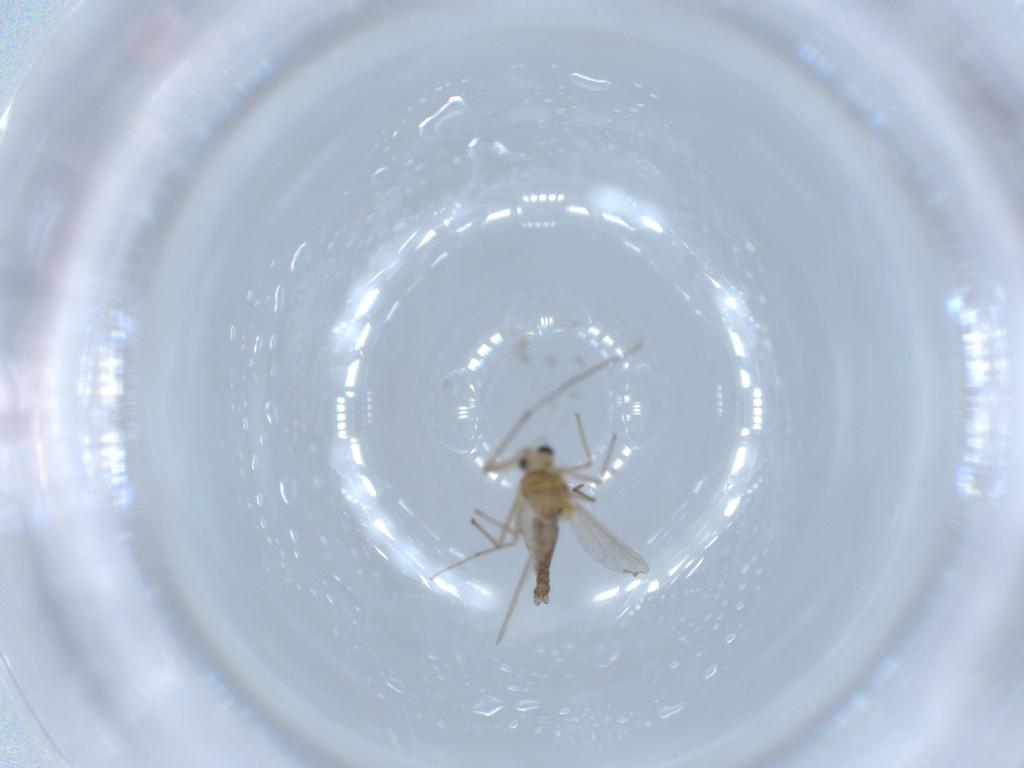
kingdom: Animalia
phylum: Arthropoda
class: Insecta
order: Diptera
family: Chironomidae
